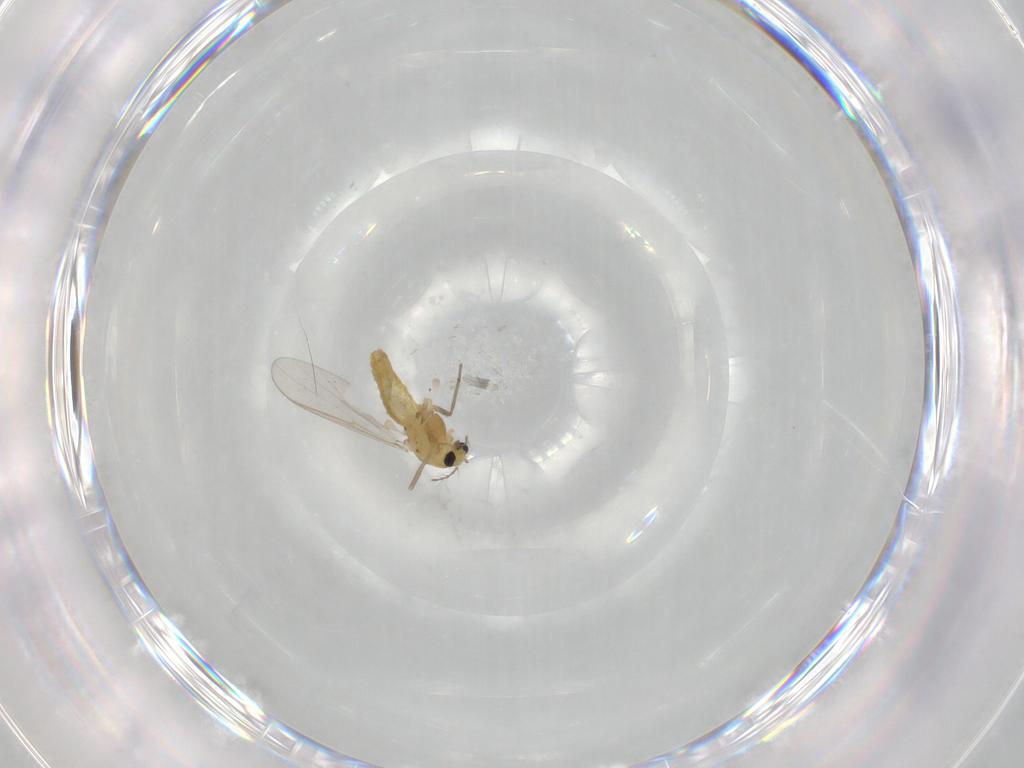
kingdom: Animalia
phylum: Arthropoda
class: Insecta
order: Diptera
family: Chironomidae
